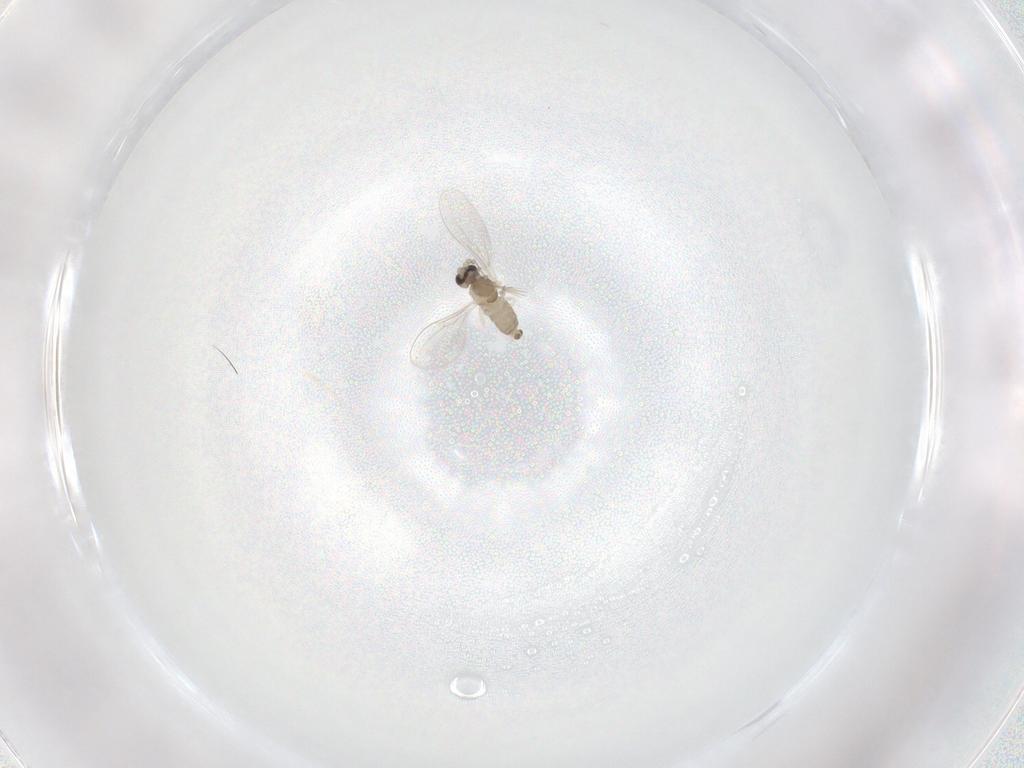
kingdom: Animalia
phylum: Arthropoda
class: Insecta
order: Diptera
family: Cecidomyiidae
